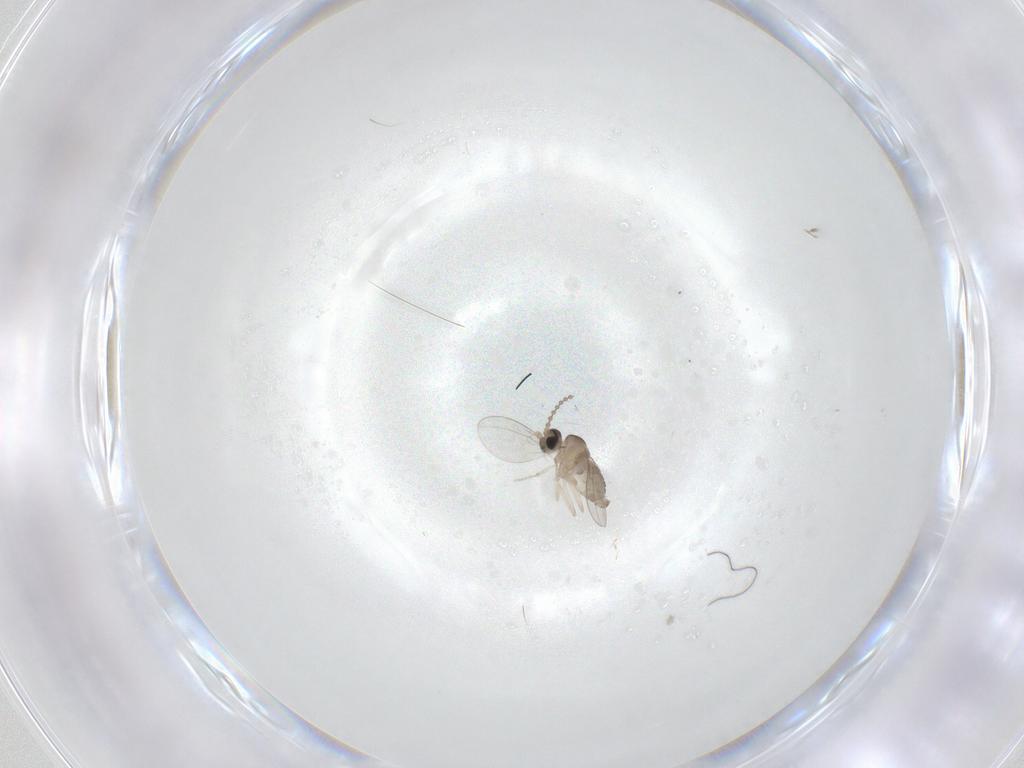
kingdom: Animalia
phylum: Arthropoda
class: Insecta
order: Diptera
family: Cecidomyiidae
